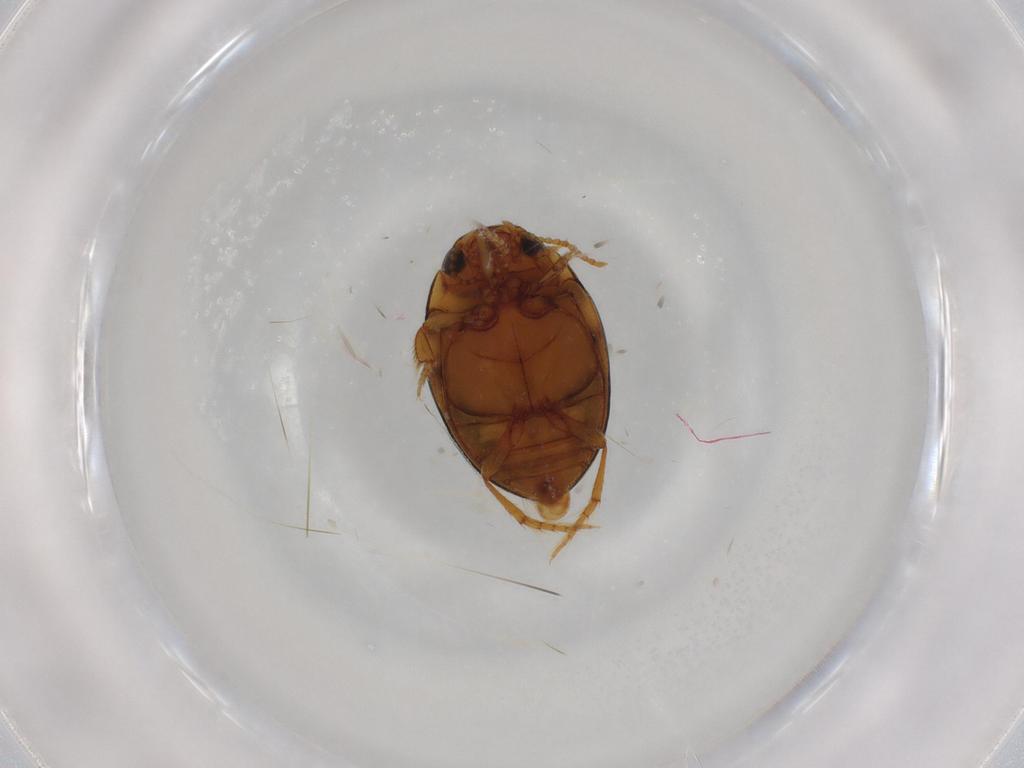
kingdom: Animalia
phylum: Arthropoda
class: Insecta
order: Coleoptera
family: Dytiscidae
